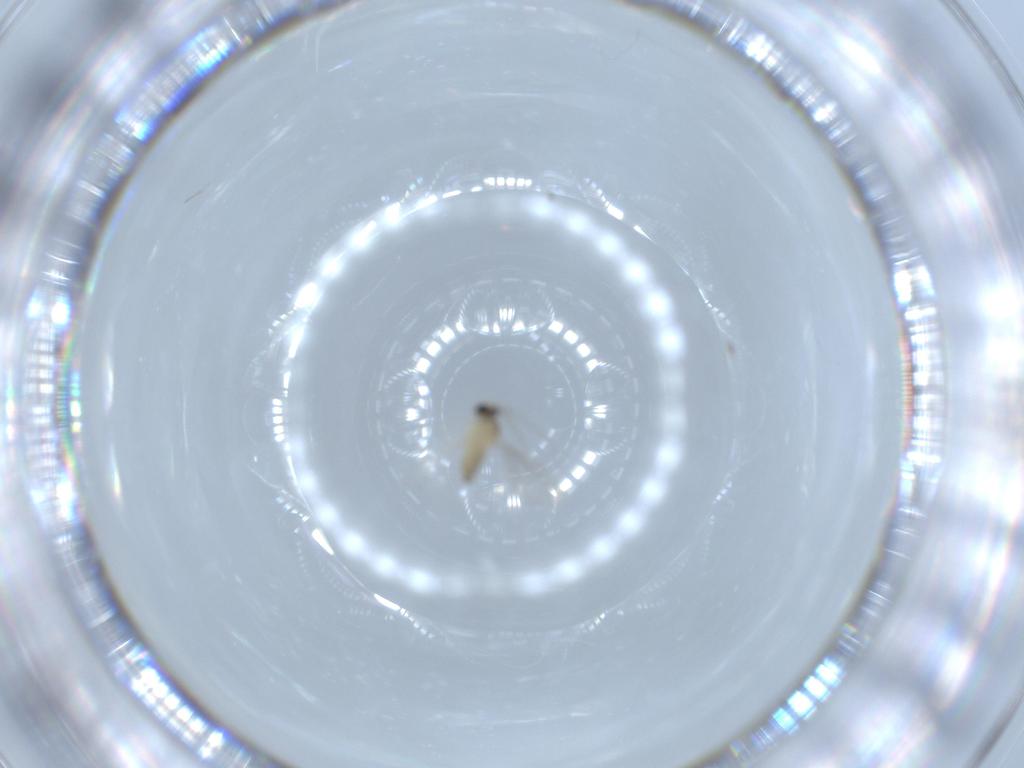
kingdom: Animalia
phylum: Arthropoda
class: Insecta
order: Diptera
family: Cecidomyiidae
